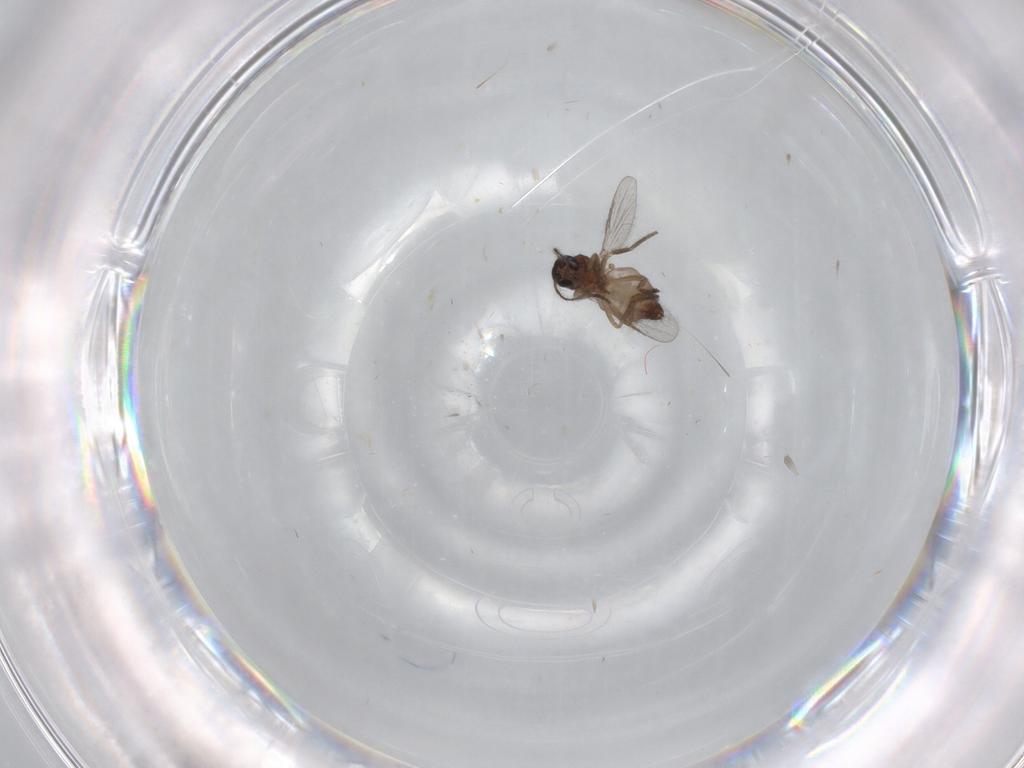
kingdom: Animalia
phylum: Arthropoda
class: Insecta
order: Diptera
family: Ceratopogonidae
